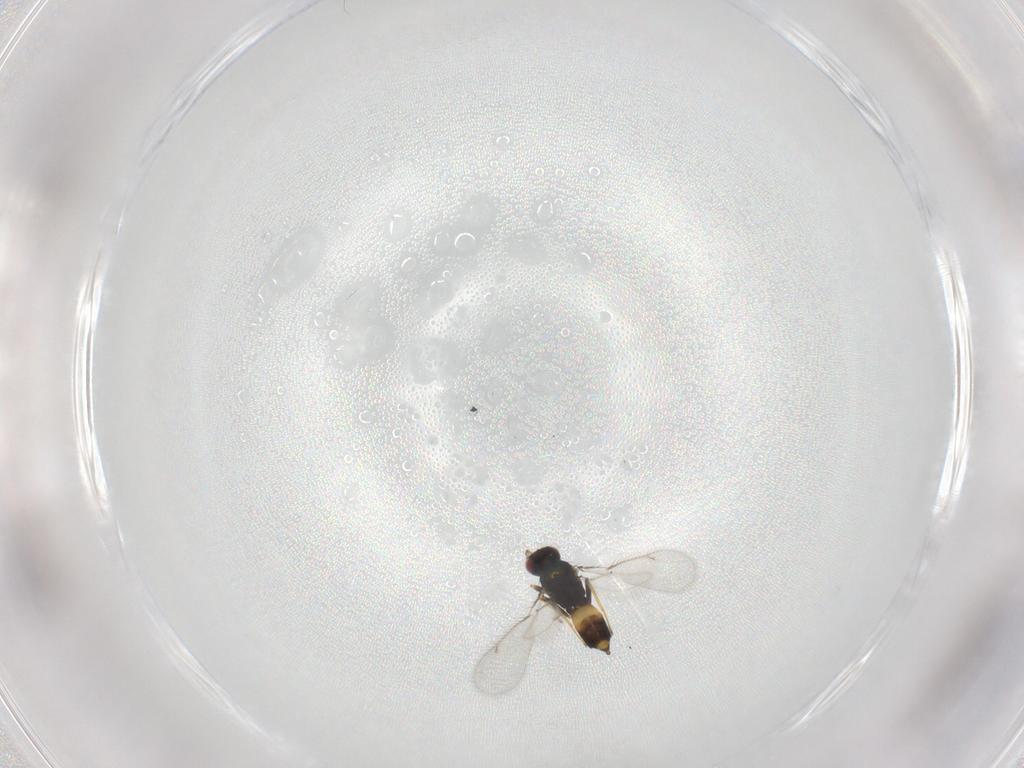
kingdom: Animalia
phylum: Arthropoda
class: Insecta
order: Hymenoptera
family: Eulophidae
